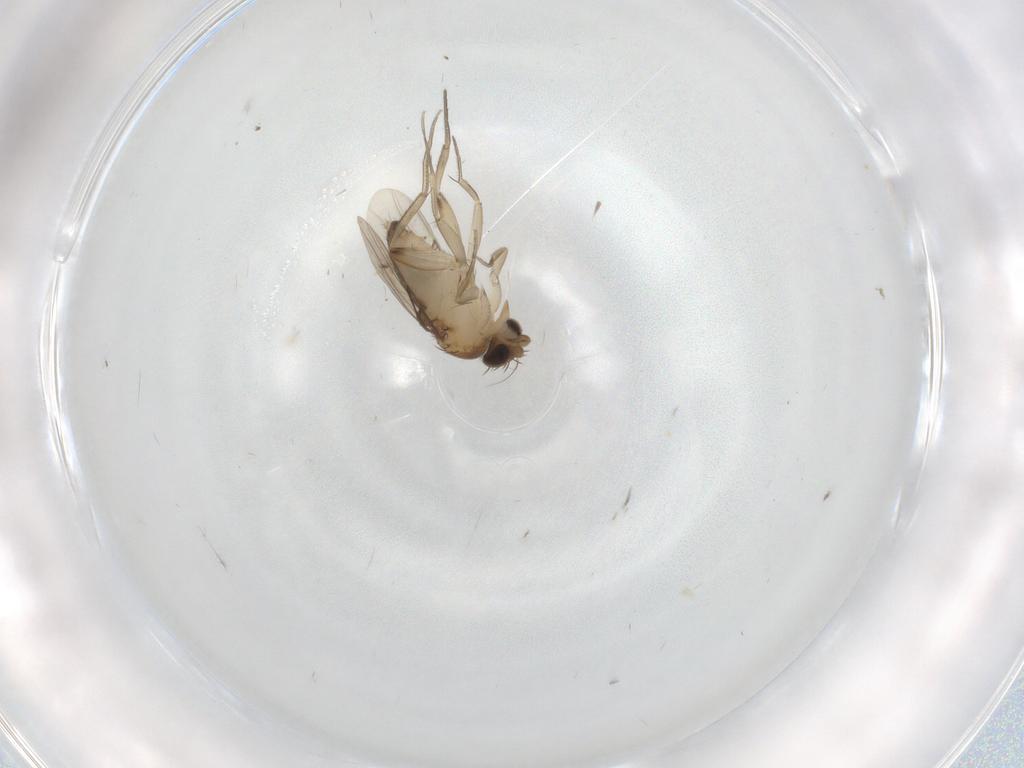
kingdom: Animalia
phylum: Arthropoda
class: Insecta
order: Diptera
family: Phoridae
